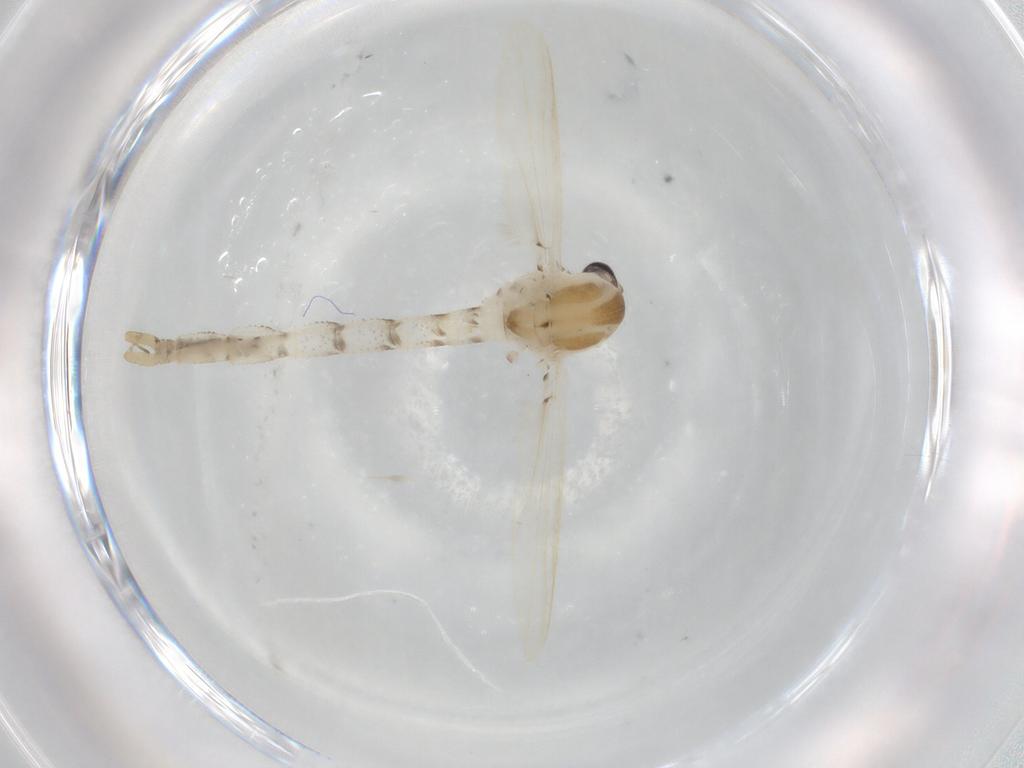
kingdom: Animalia
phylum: Arthropoda
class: Insecta
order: Diptera
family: Chaoboridae
